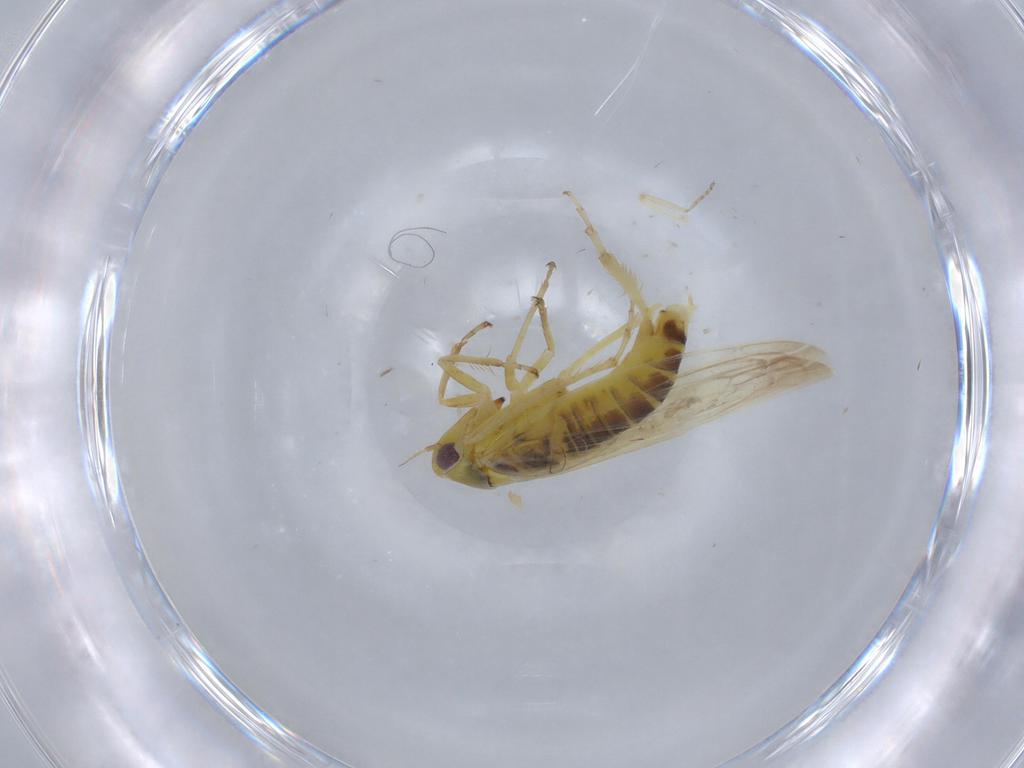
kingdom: Animalia
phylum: Arthropoda
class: Insecta
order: Hemiptera
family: Cicadellidae
